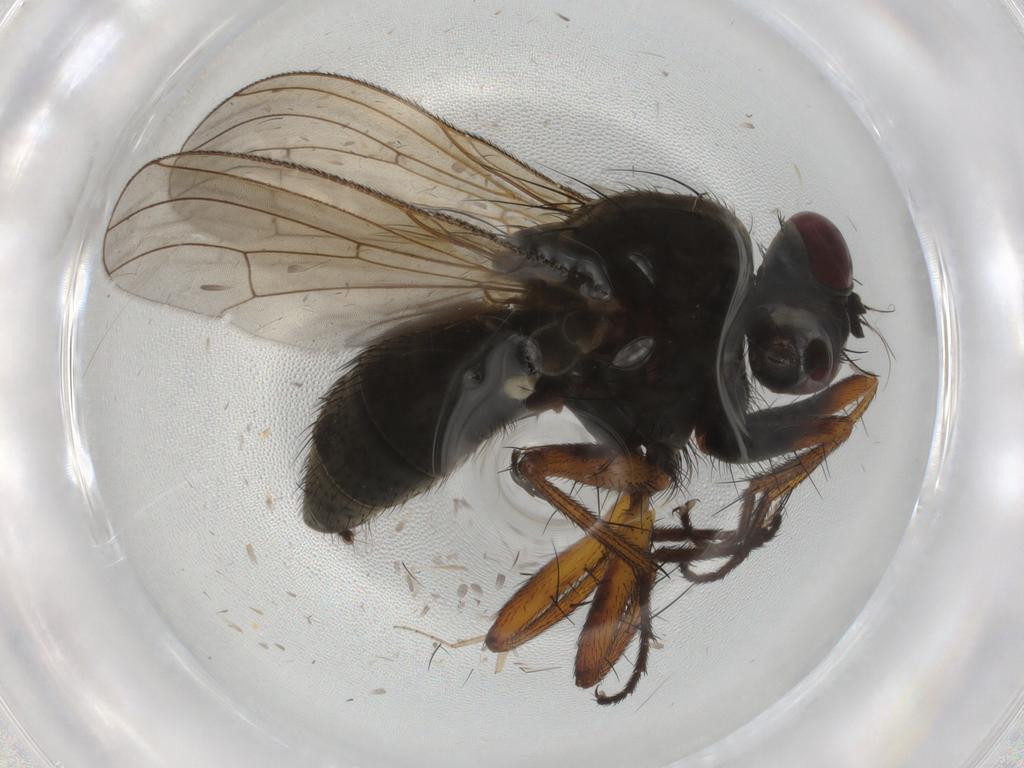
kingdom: Animalia
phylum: Arthropoda
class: Insecta
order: Diptera
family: Muscidae
